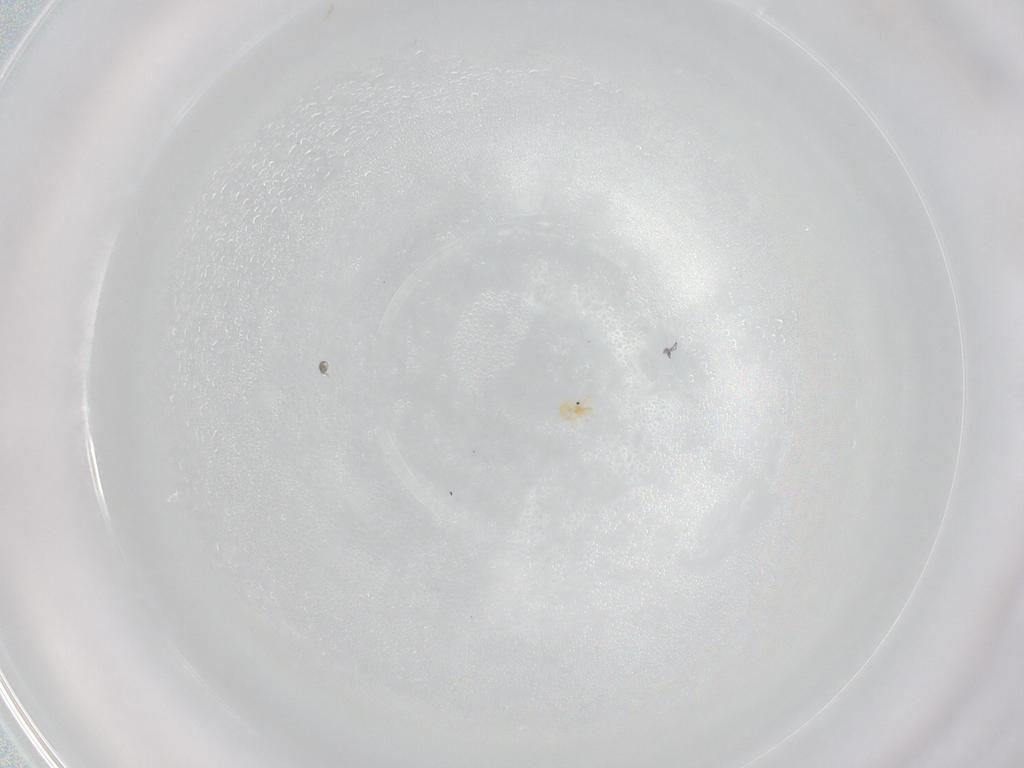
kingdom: Animalia
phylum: Arthropoda
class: Arachnida
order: Trombidiformes
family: Tetranychidae
